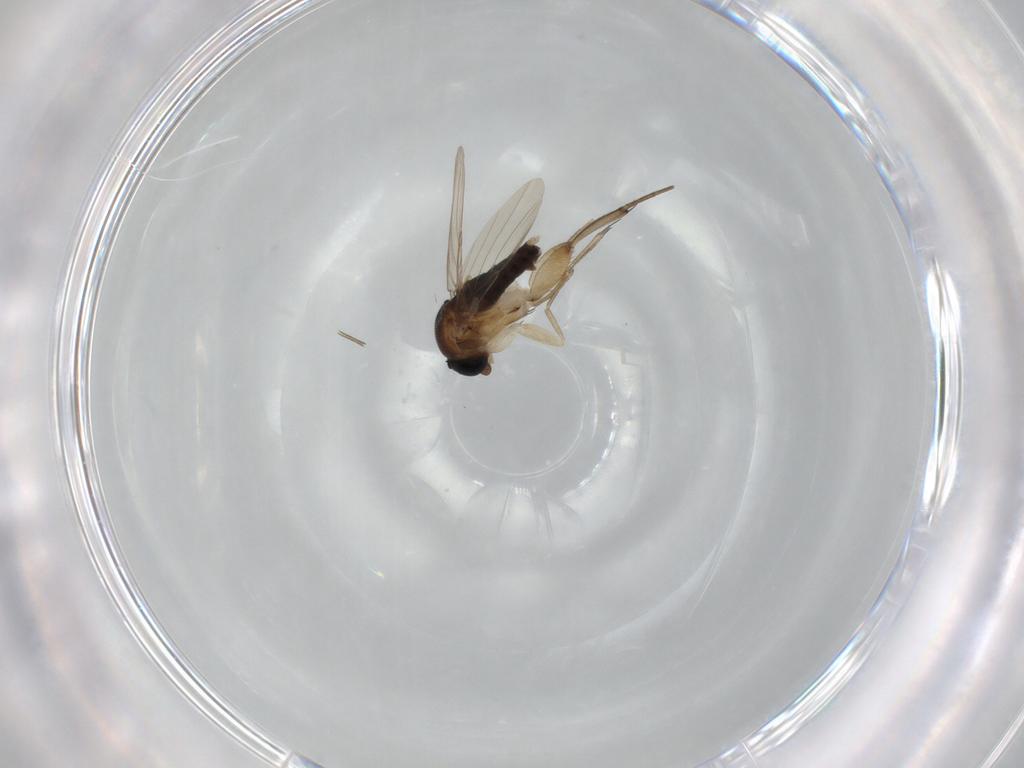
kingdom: Animalia
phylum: Arthropoda
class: Insecta
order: Diptera
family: Phoridae
